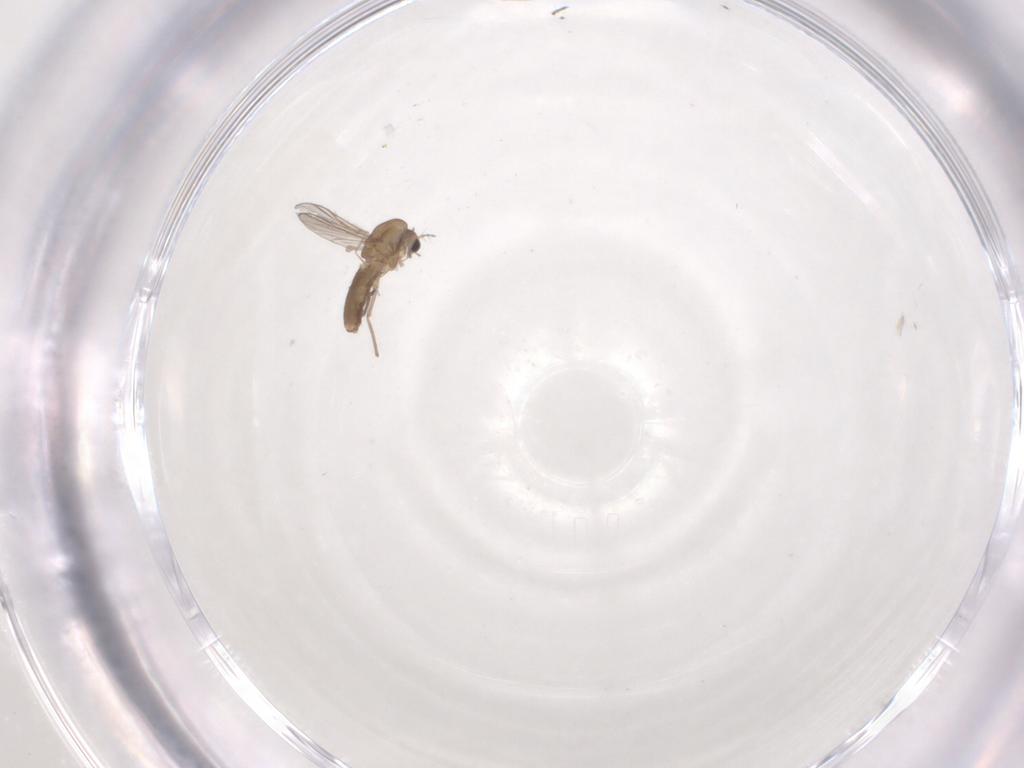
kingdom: Animalia
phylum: Arthropoda
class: Insecta
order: Diptera
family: Chironomidae
